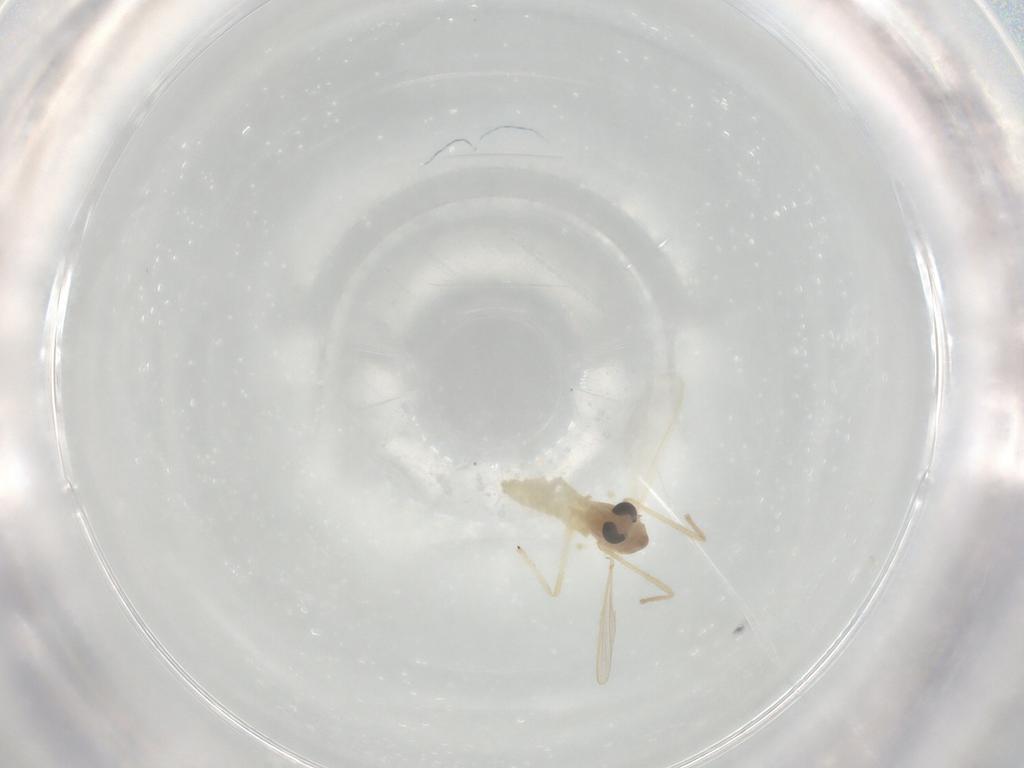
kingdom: Animalia
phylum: Arthropoda
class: Insecta
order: Diptera
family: Chironomidae
